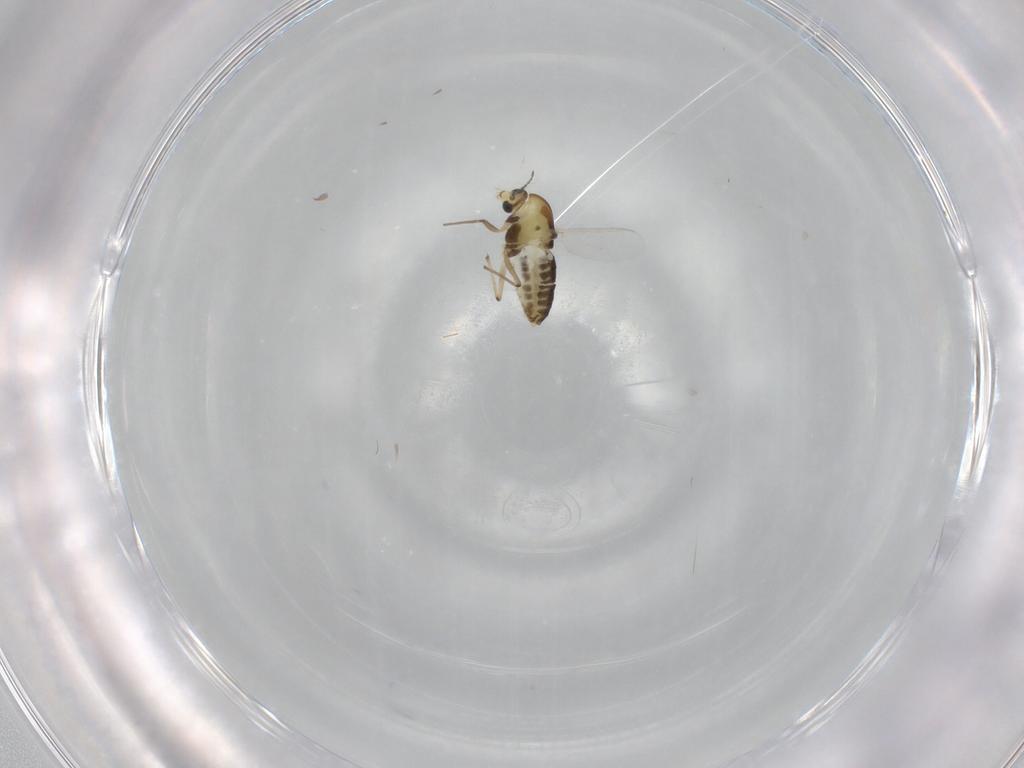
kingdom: Animalia
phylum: Arthropoda
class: Insecta
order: Diptera
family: Chironomidae
